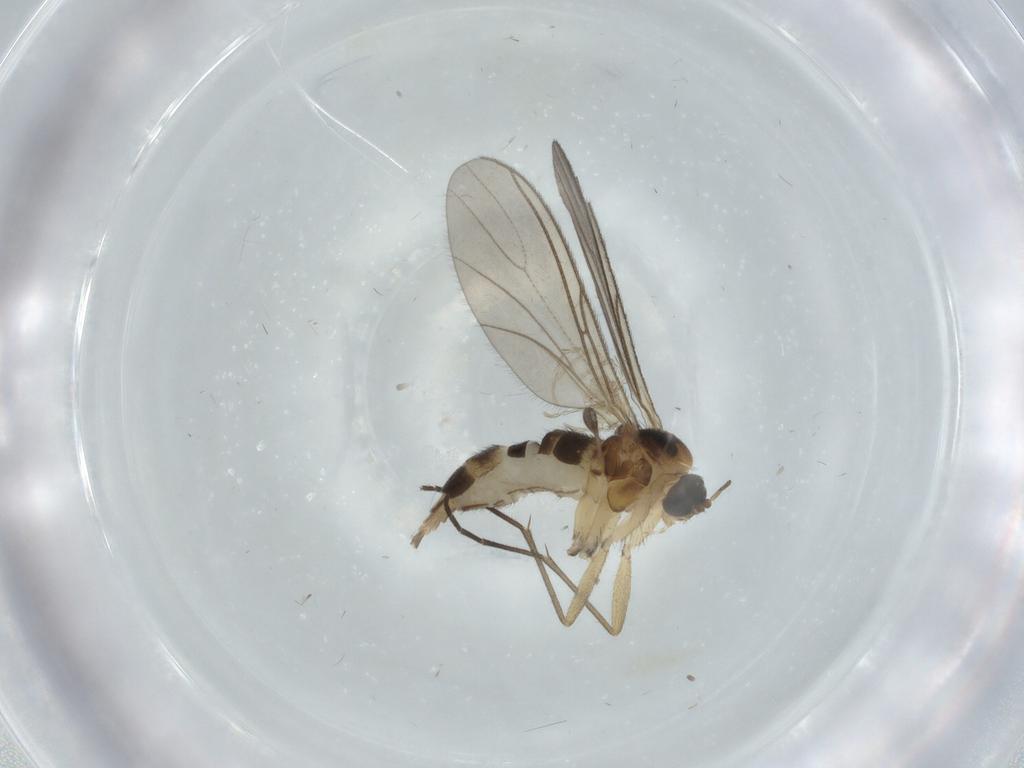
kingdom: Animalia
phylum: Arthropoda
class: Insecta
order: Diptera
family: Sciaridae
